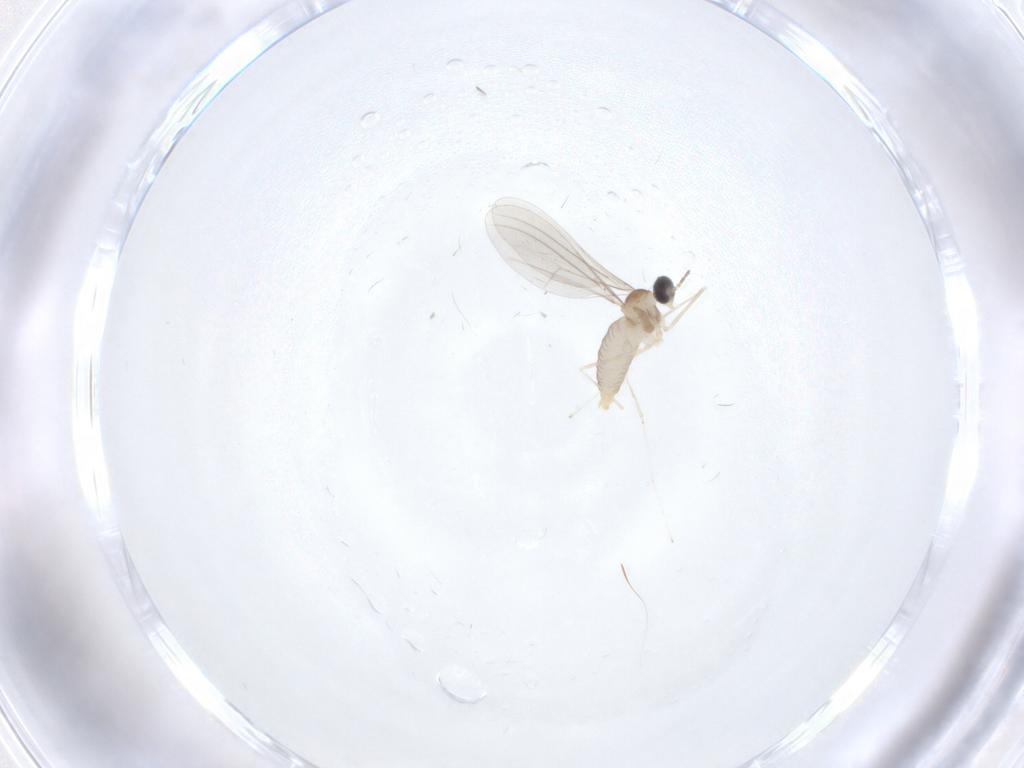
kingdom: Animalia
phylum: Arthropoda
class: Insecta
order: Diptera
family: Cecidomyiidae
